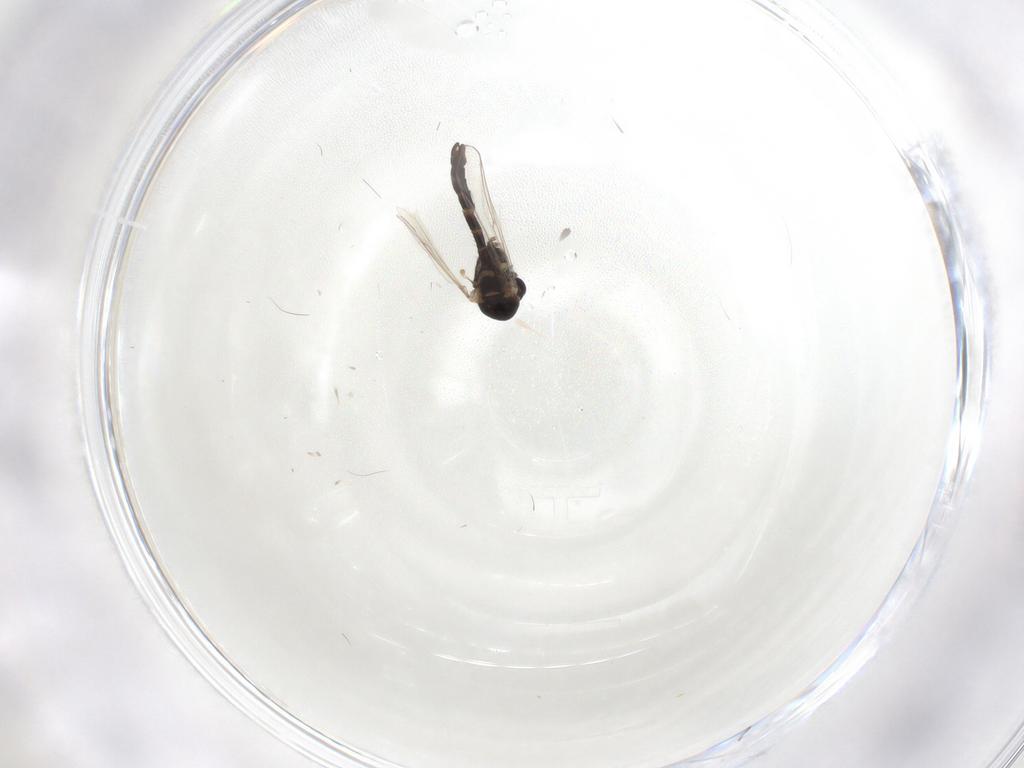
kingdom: Animalia
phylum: Arthropoda
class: Insecta
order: Diptera
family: Chironomidae
